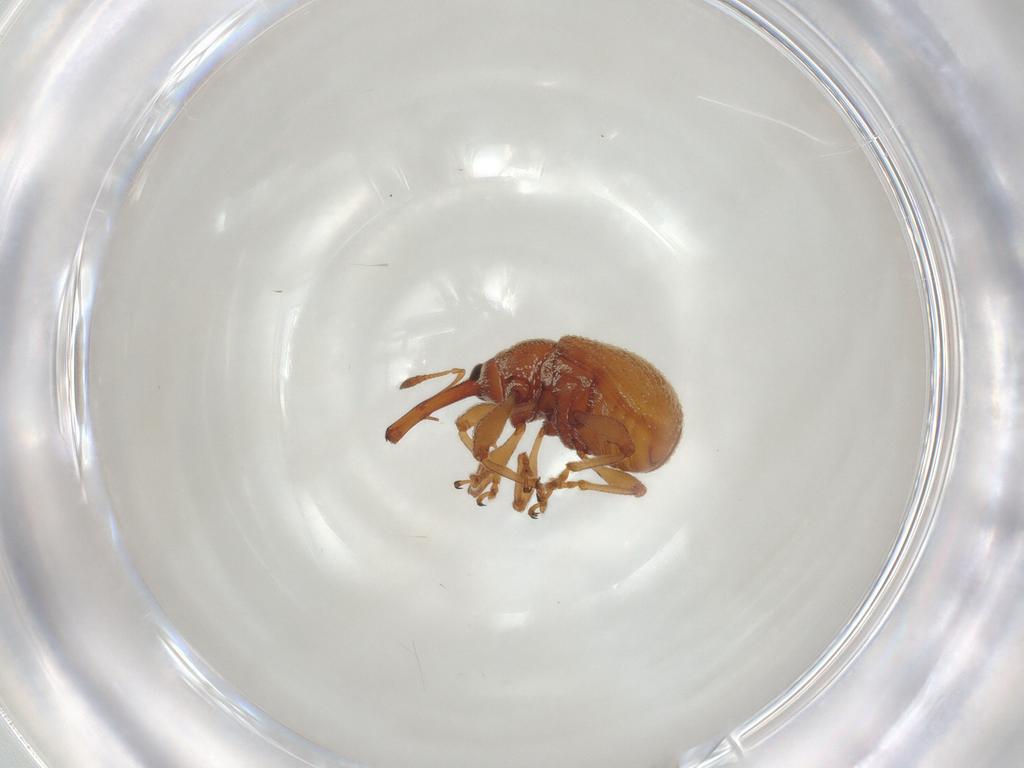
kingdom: Animalia
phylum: Arthropoda
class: Insecta
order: Coleoptera
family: Curculionidae
